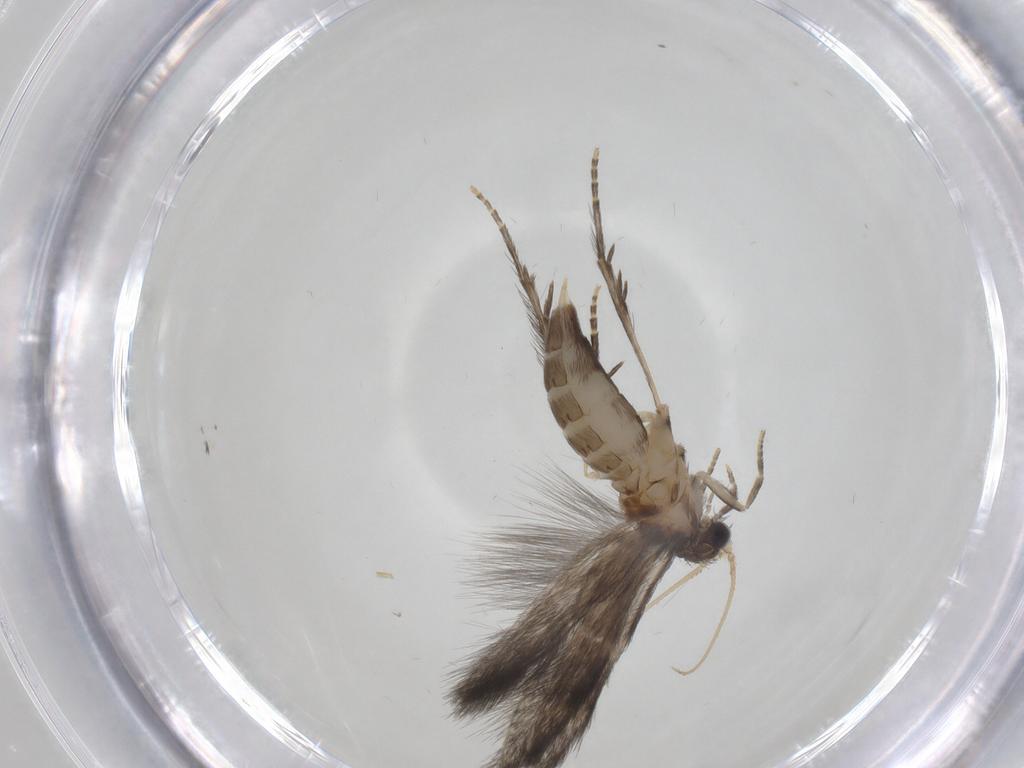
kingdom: Animalia
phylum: Arthropoda
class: Insecta
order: Trichoptera
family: Hydroptilidae
